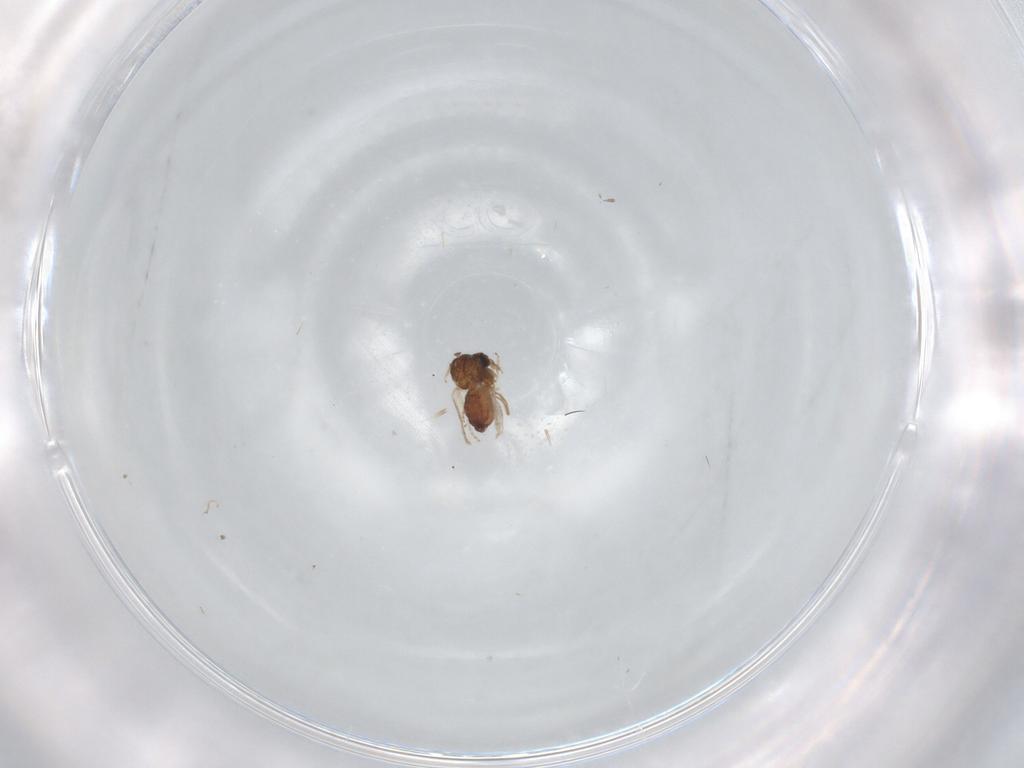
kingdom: Animalia
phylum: Arthropoda
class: Insecta
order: Diptera
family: Ceratopogonidae
